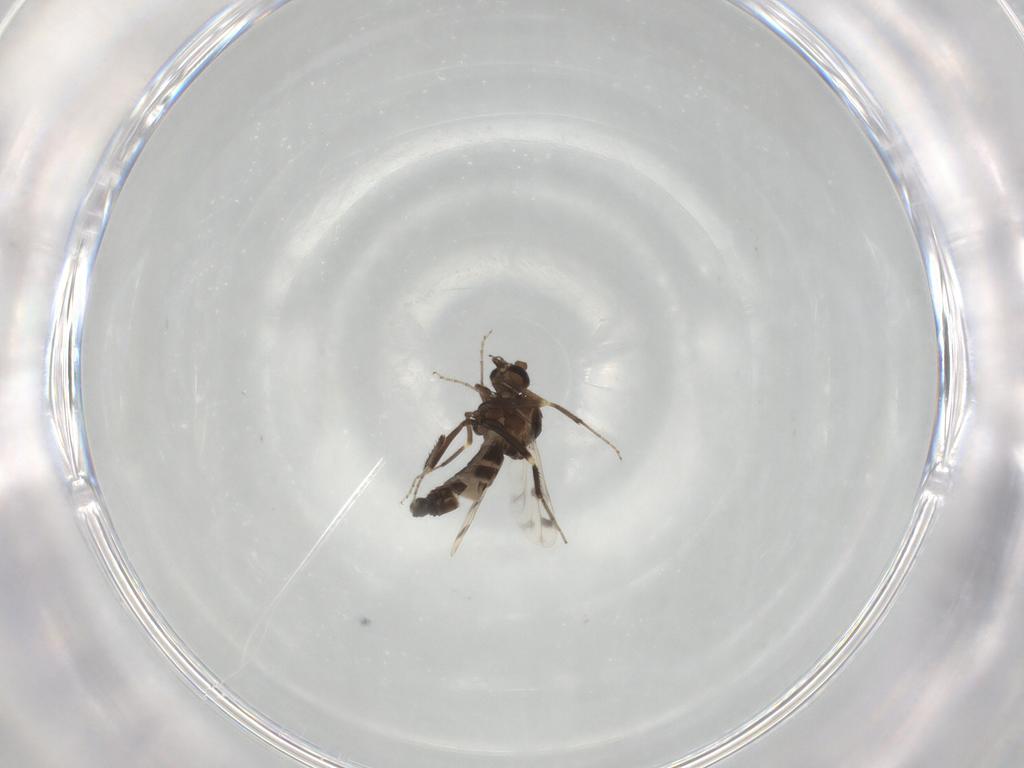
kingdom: Animalia
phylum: Arthropoda
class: Insecta
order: Diptera
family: Ceratopogonidae
